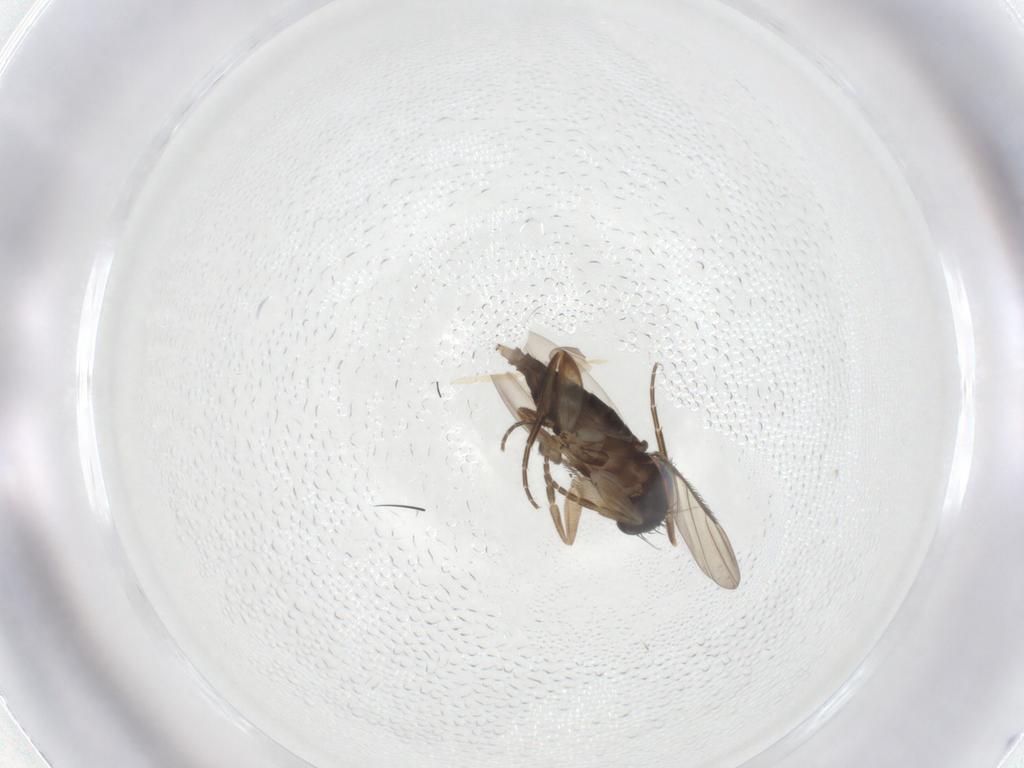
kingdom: Animalia
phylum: Arthropoda
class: Insecta
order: Diptera
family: Phoridae
